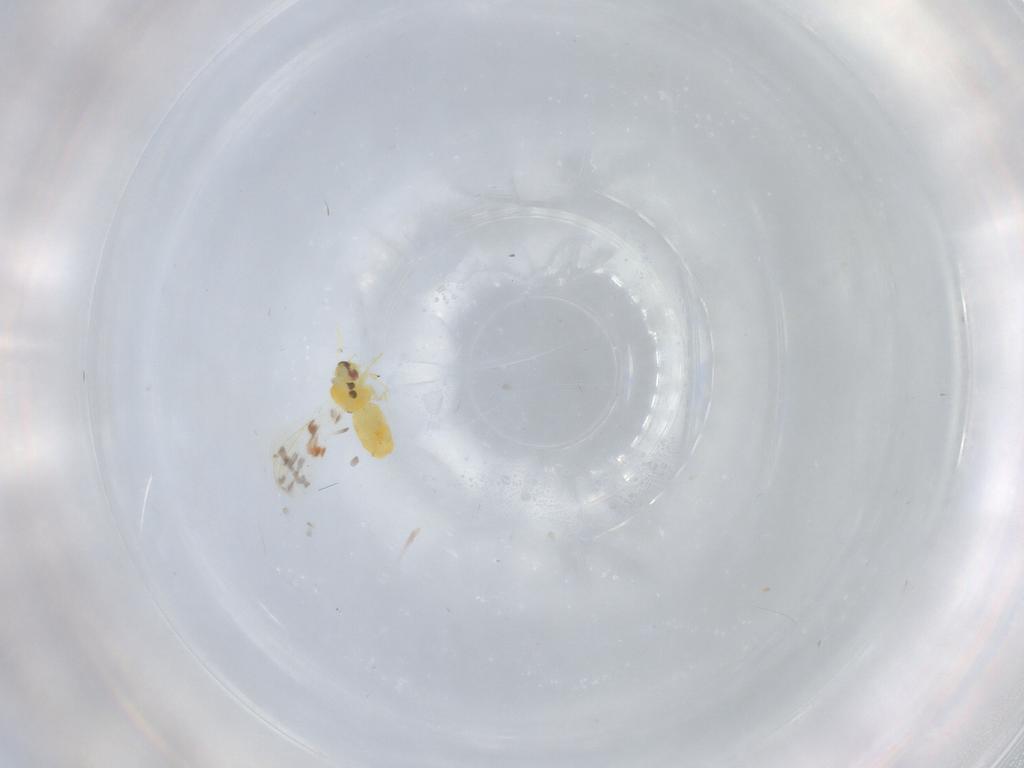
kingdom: Animalia
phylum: Arthropoda
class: Insecta
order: Hemiptera
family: Aleyrodidae
